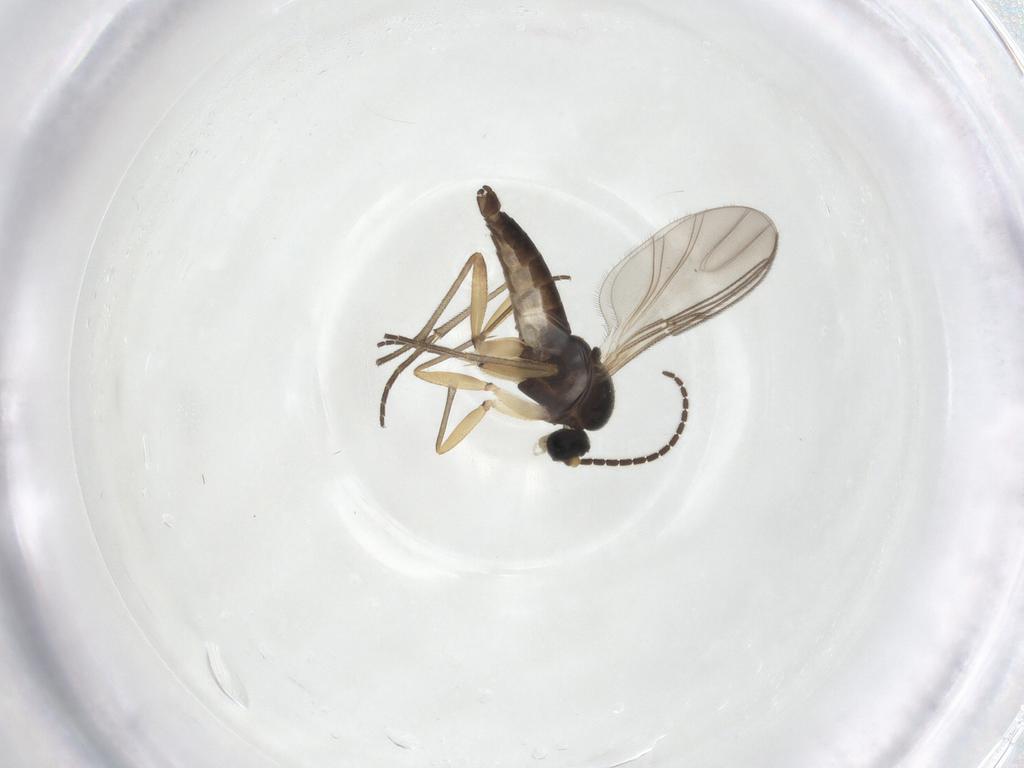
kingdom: Animalia
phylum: Arthropoda
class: Insecta
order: Diptera
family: Sciaridae
